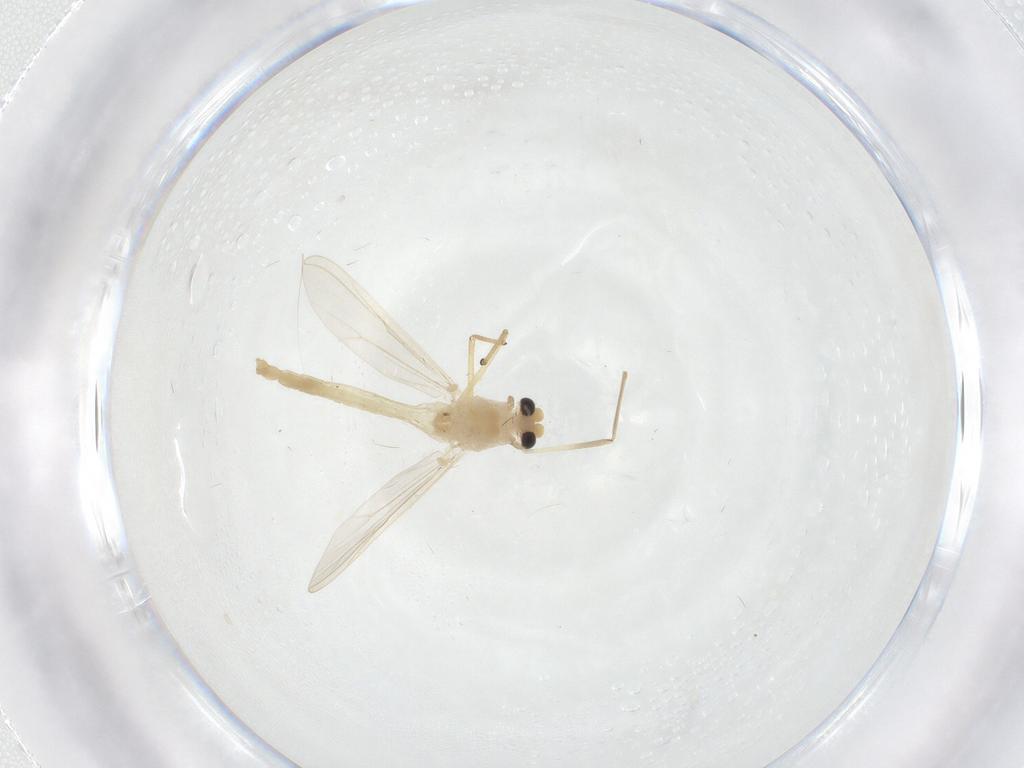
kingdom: Animalia
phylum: Arthropoda
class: Insecta
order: Diptera
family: Chironomidae
